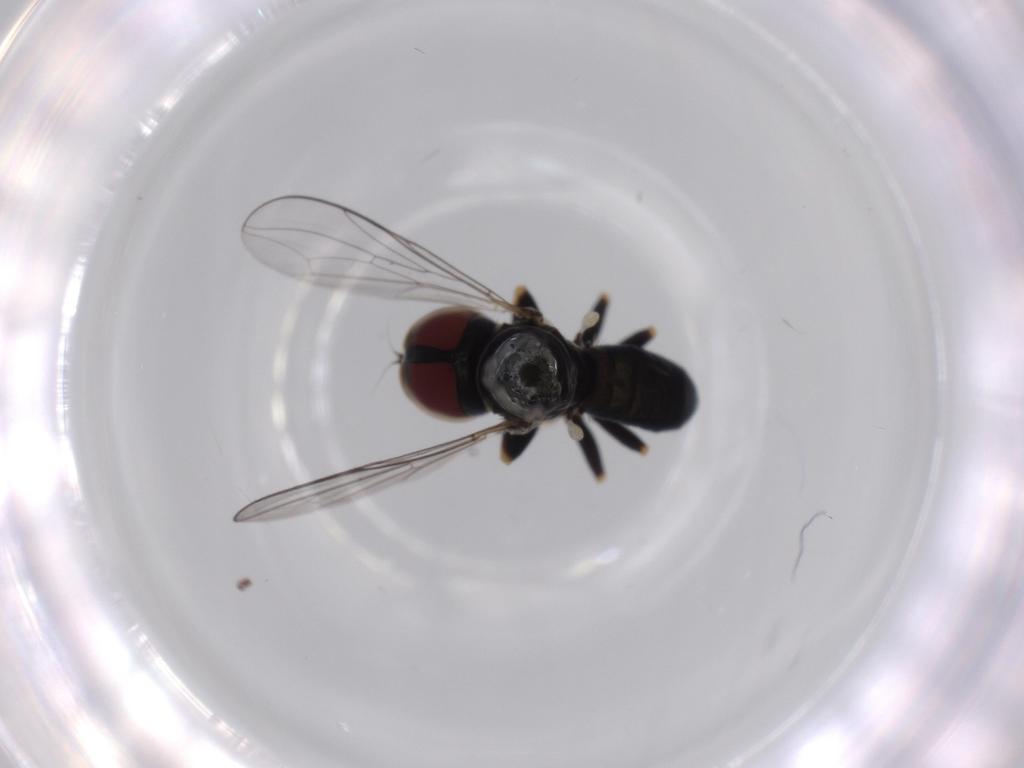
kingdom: Animalia
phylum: Arthropoda
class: Insecta
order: Diptera
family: Pipunculidae
